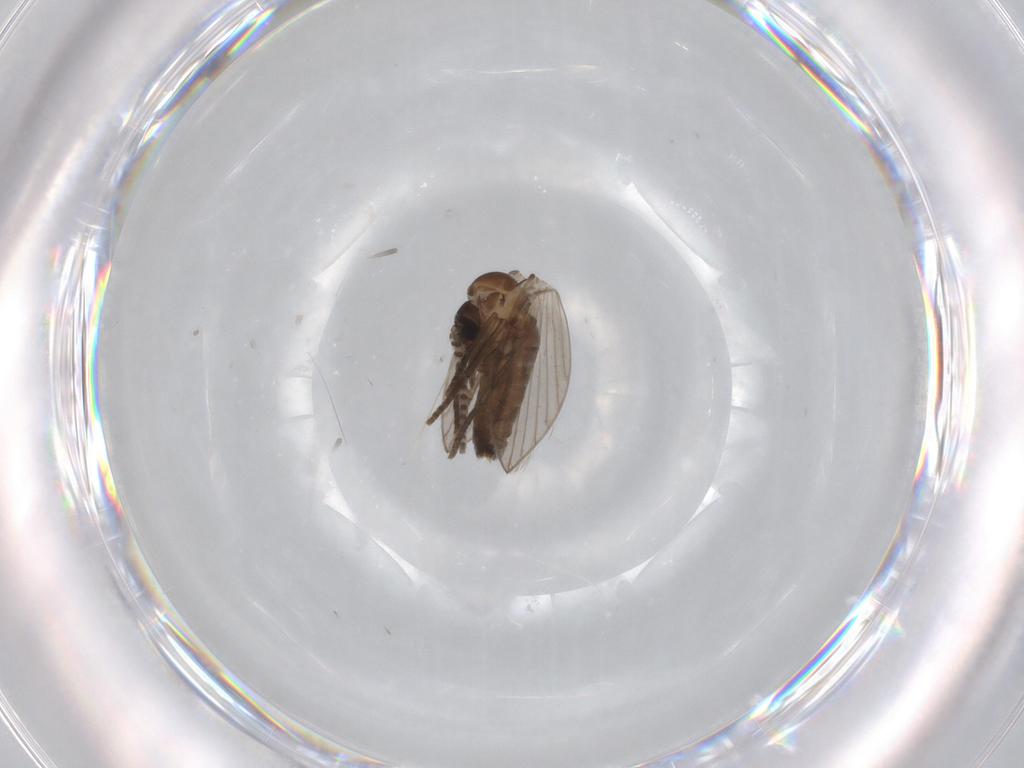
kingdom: Animalia
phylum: Arthropoda
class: Insecta
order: Diptera
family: Psychodidae
